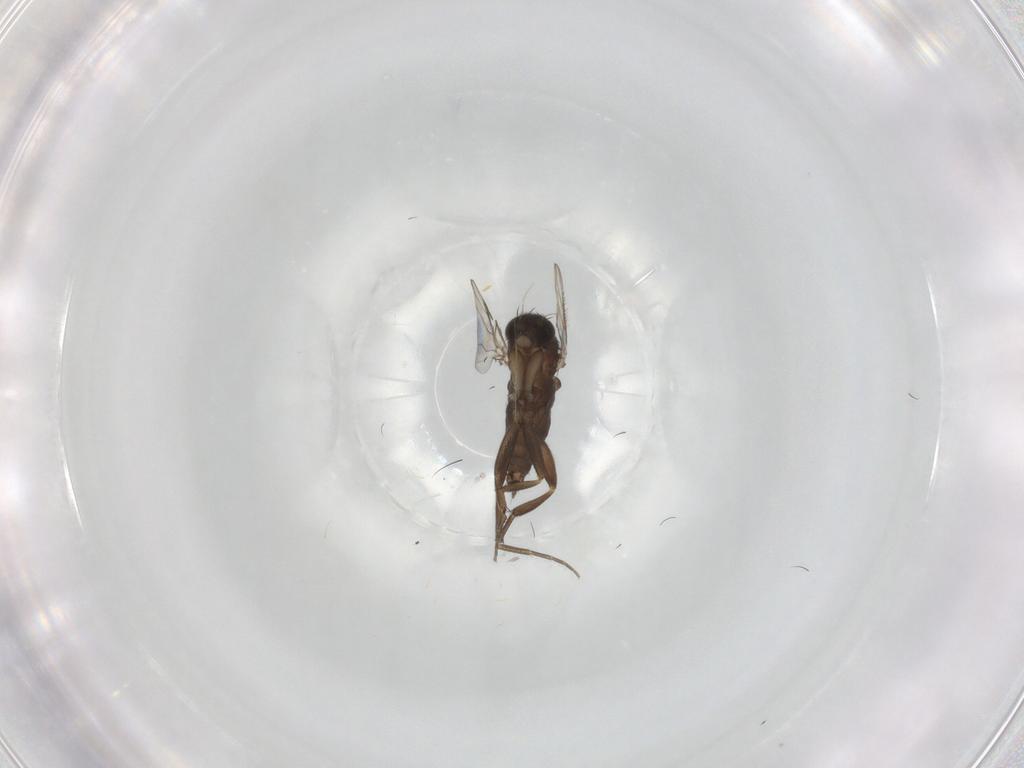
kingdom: Animalia
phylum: Arthropoda
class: Insecta
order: Diptera
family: Phoridae
